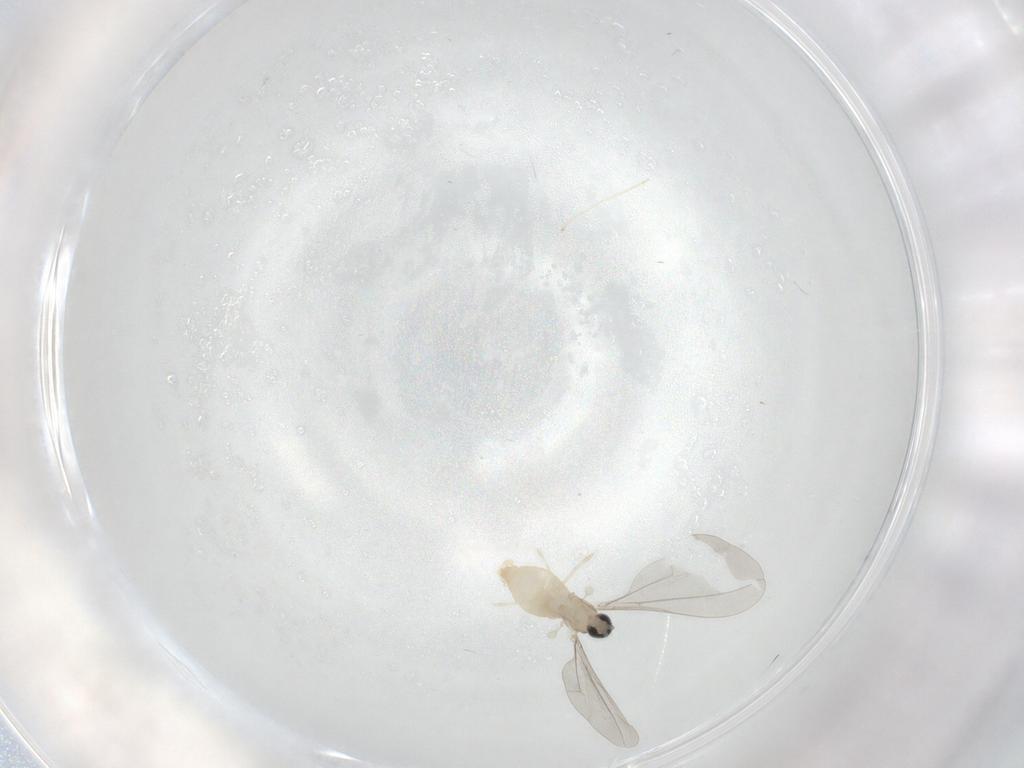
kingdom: Animalia
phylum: Arthropoda
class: Insecta
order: Diptera
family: Cecidomyiidae
